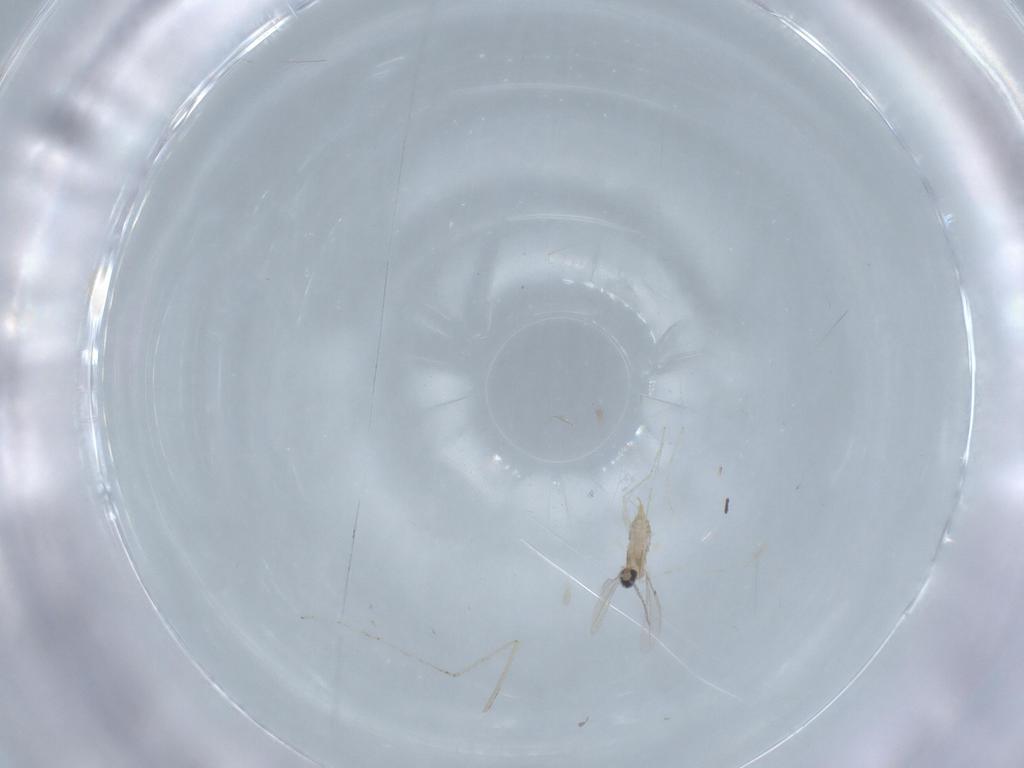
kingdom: Animalia
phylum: Arthropoda
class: Insecta
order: Diptera
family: Cecidomyiidae
